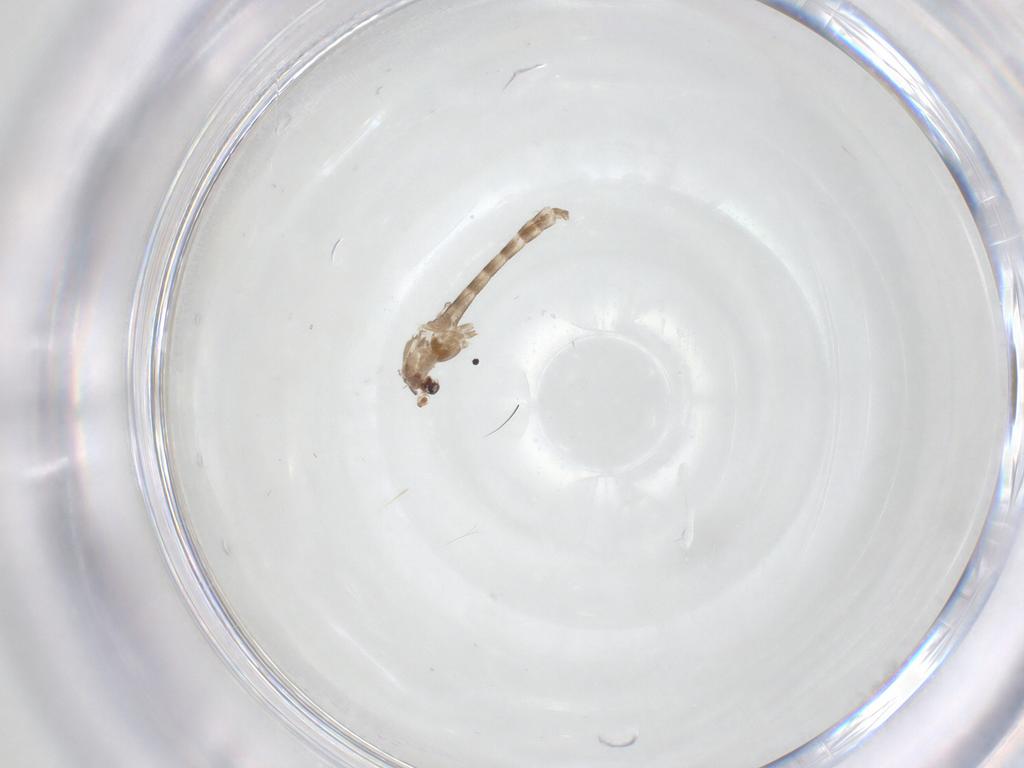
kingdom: Animalia
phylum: Arthropoda
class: Insecta
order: Diptera
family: Chironomidae
